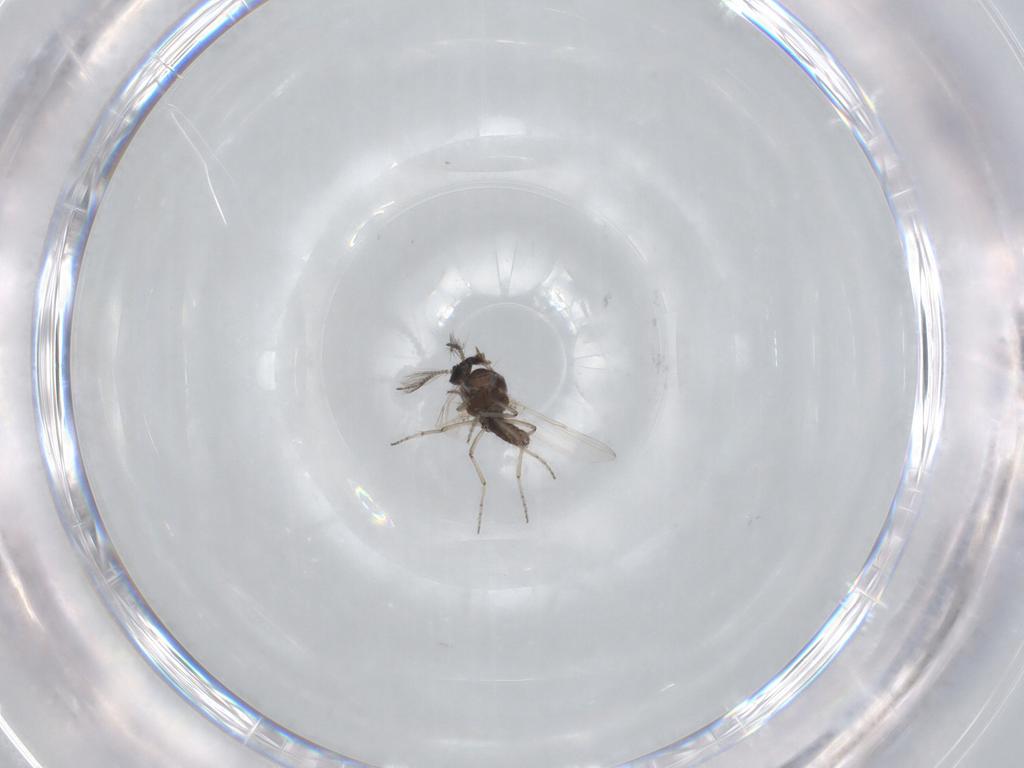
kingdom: Animalia
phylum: Arthropoda
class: Insecta
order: Diptera
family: Ceratopogonidae
